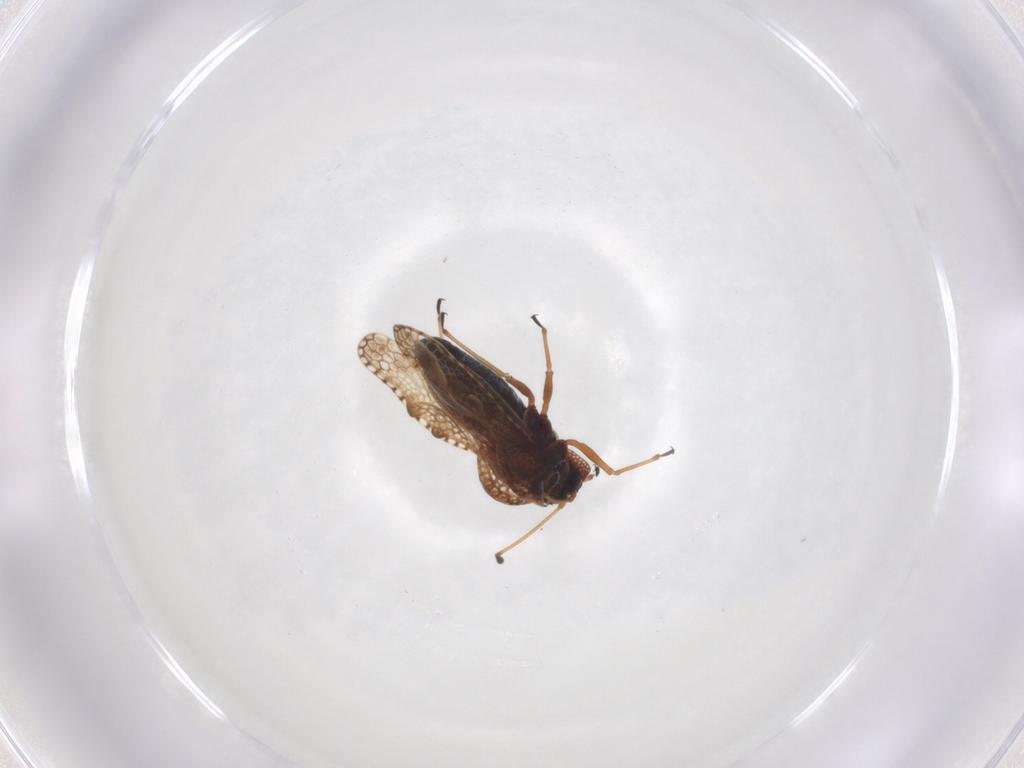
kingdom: Animalia
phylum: Arthropoda
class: Insecta
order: Hemiptera
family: Tingidae
